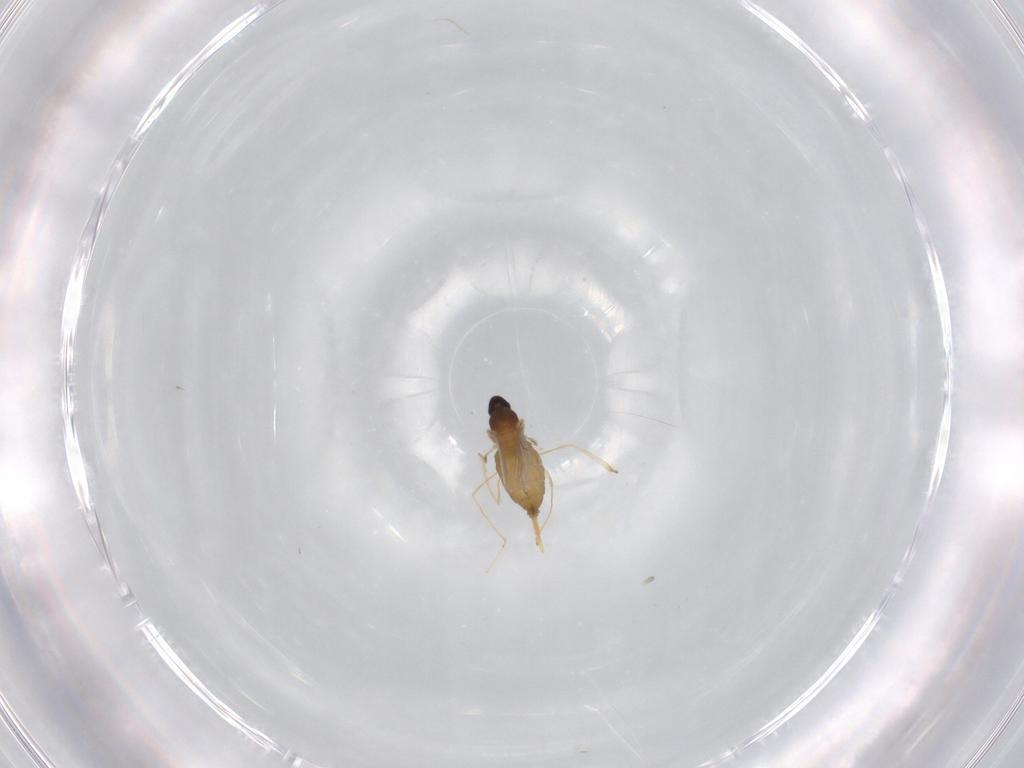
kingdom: Animalia
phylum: Arthropoda
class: Insecta
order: Diptera
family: Cecidomyiidae
